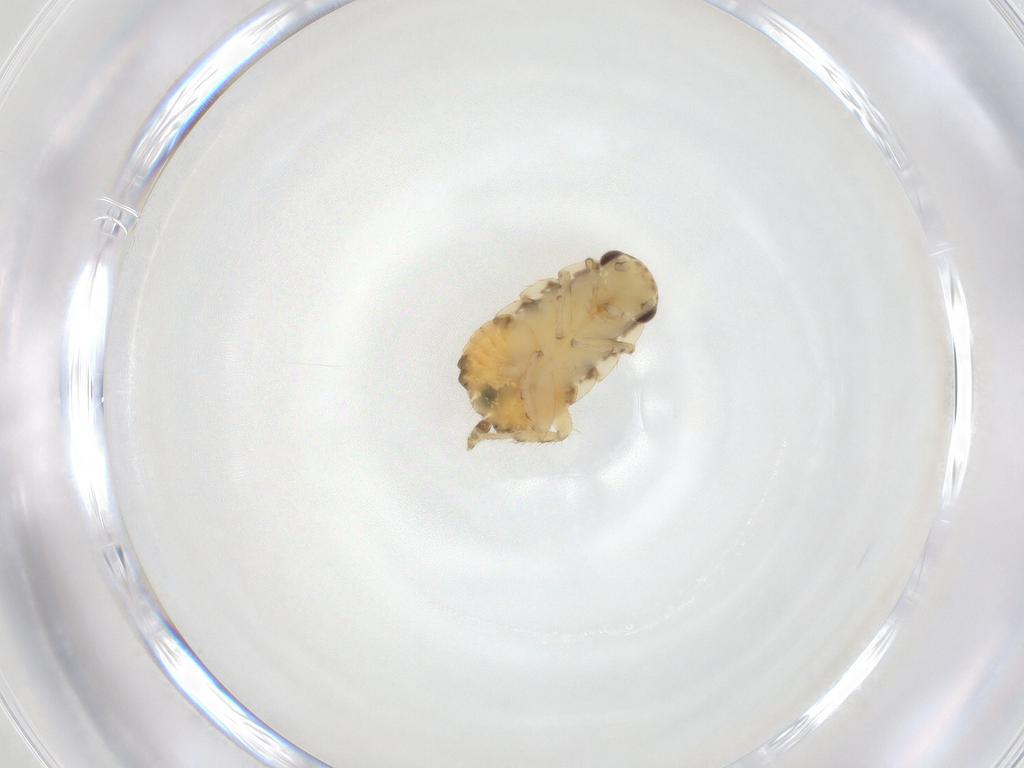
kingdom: Animalia
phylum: Arthropoda
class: Insecta
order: Blattodea
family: Ectobiidae
